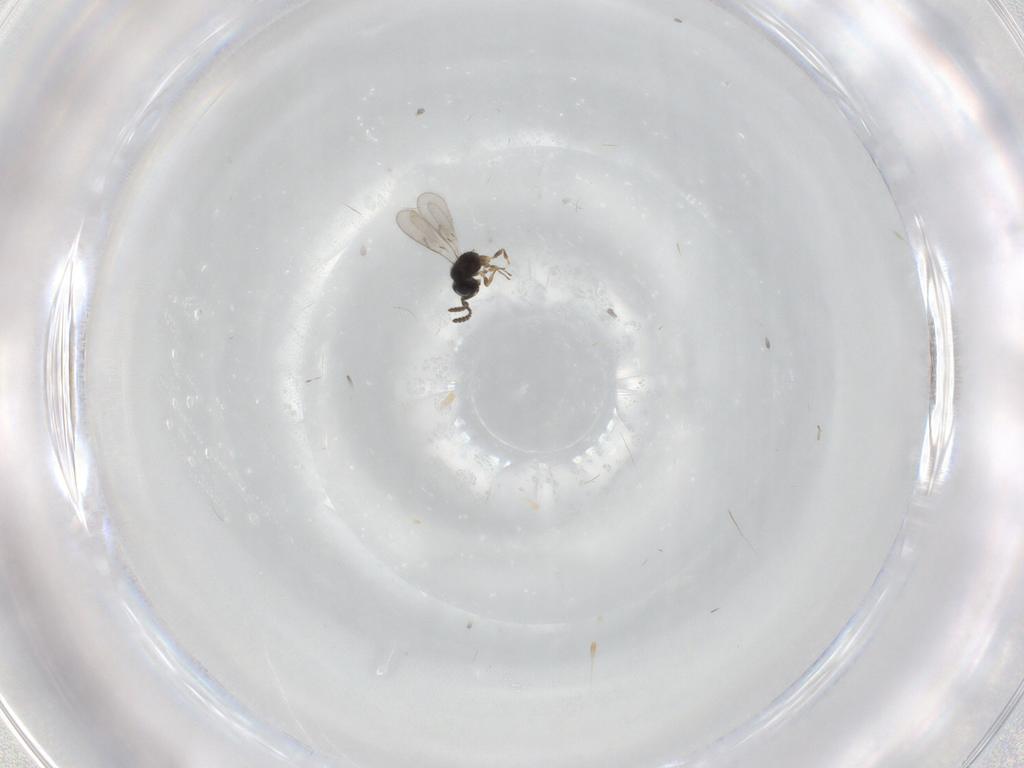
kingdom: Animalia
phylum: Arthropoda
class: Insecta
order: Hymenoptera
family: Scelionidae
